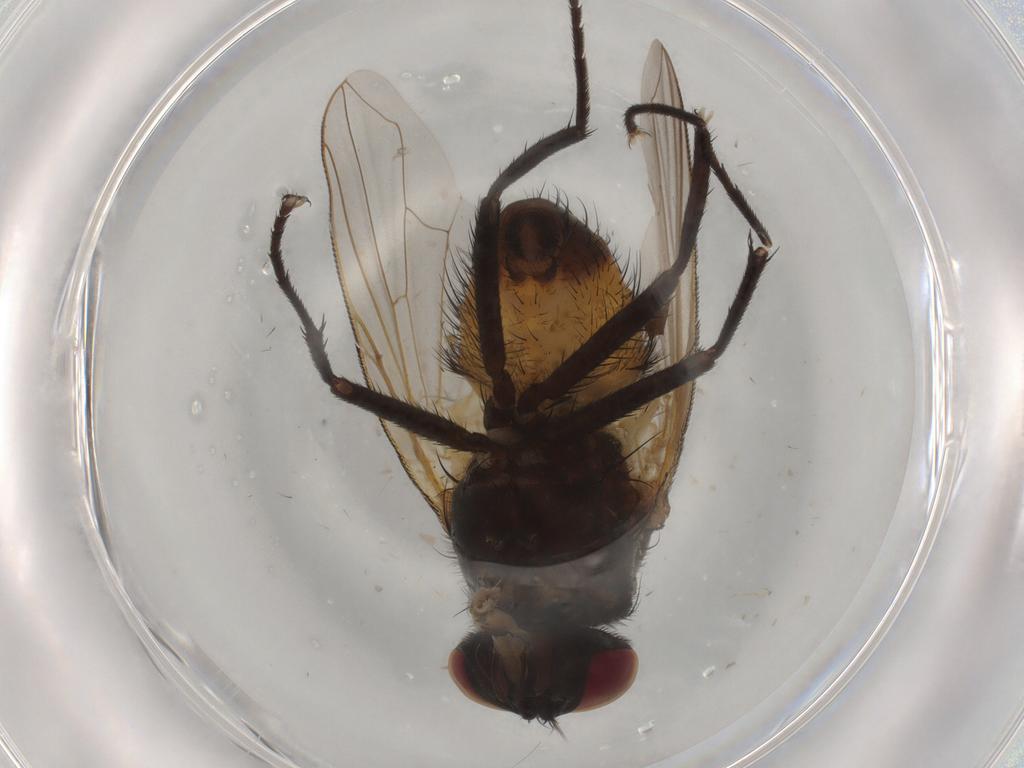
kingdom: Animalia
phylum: Arthropoda
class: Insecta
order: Diptera
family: Muscidae
